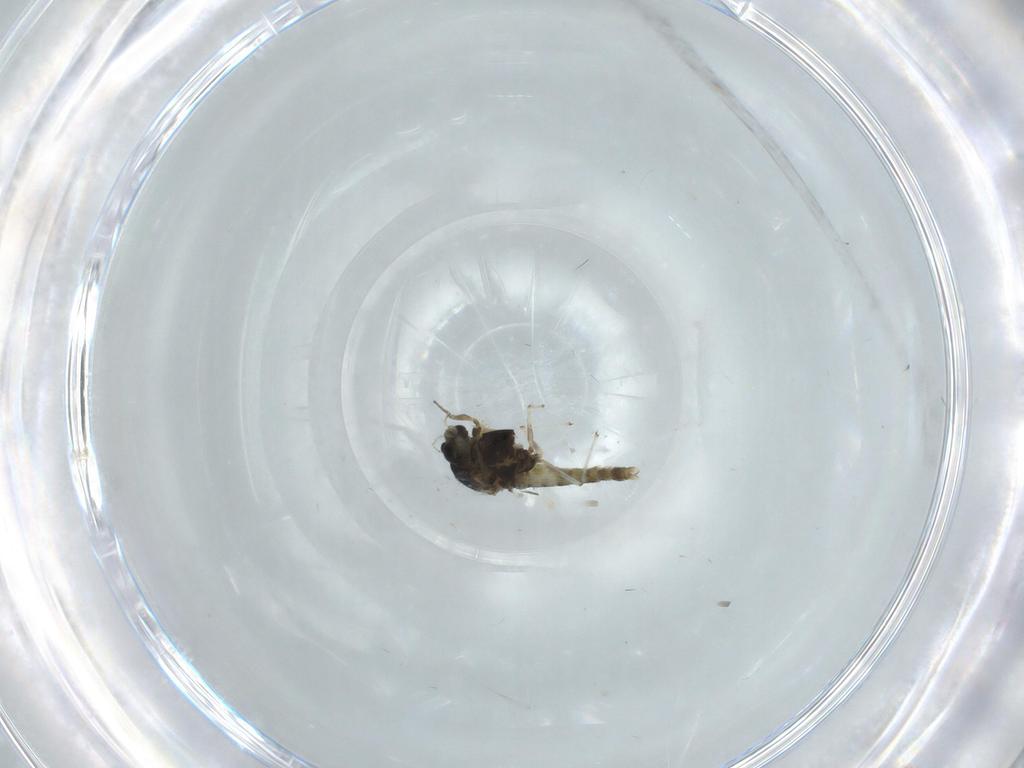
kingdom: Animalia
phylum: Arthropoda
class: Insecta
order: Diptera
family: Chironomidae
